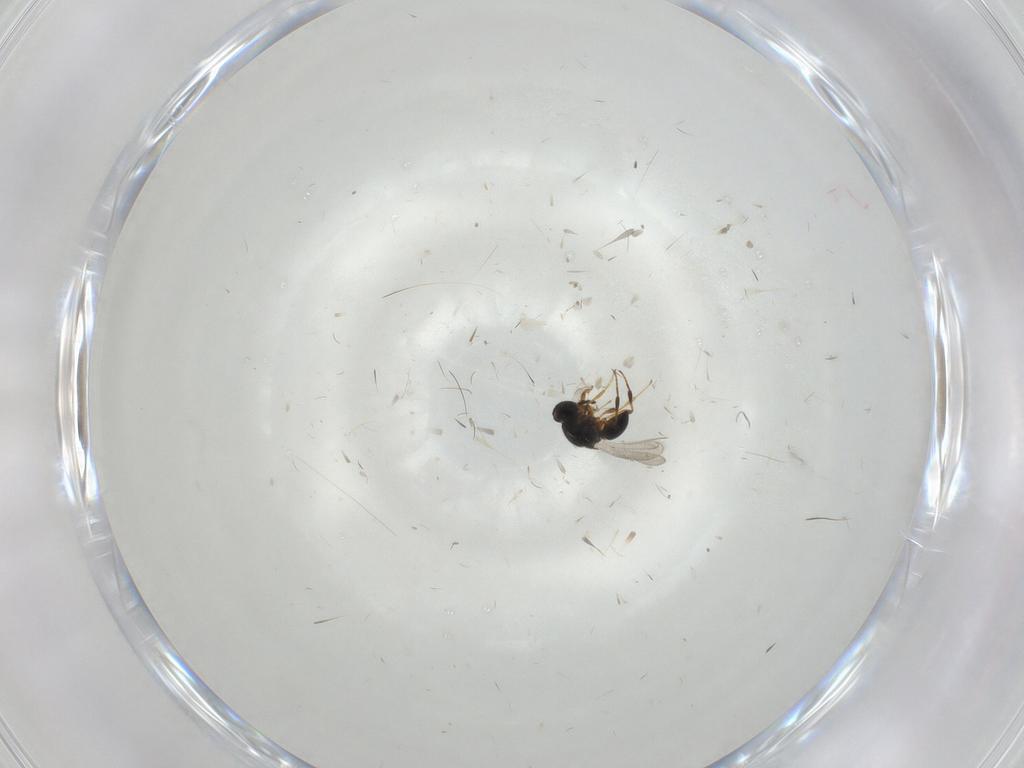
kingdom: Animalia
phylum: Arthropoda
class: Insecta
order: Hymenoptera
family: Platygastridae
